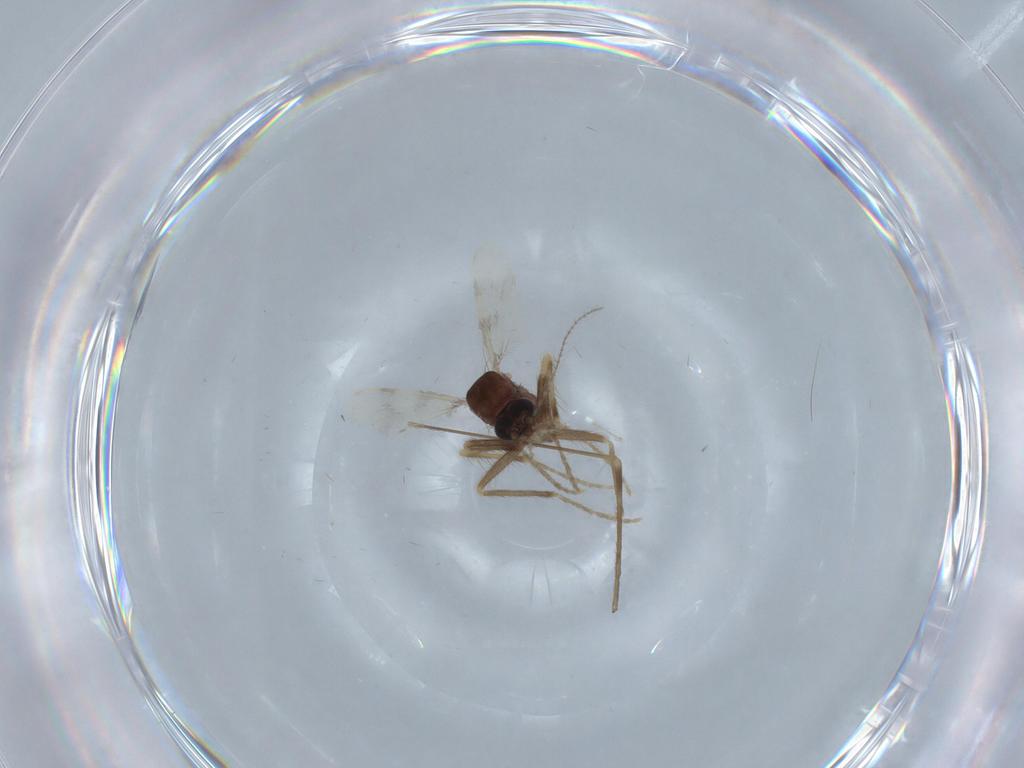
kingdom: Animalia
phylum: Arthropoda
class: Insecta
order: Diptera
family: Corethrellidae
